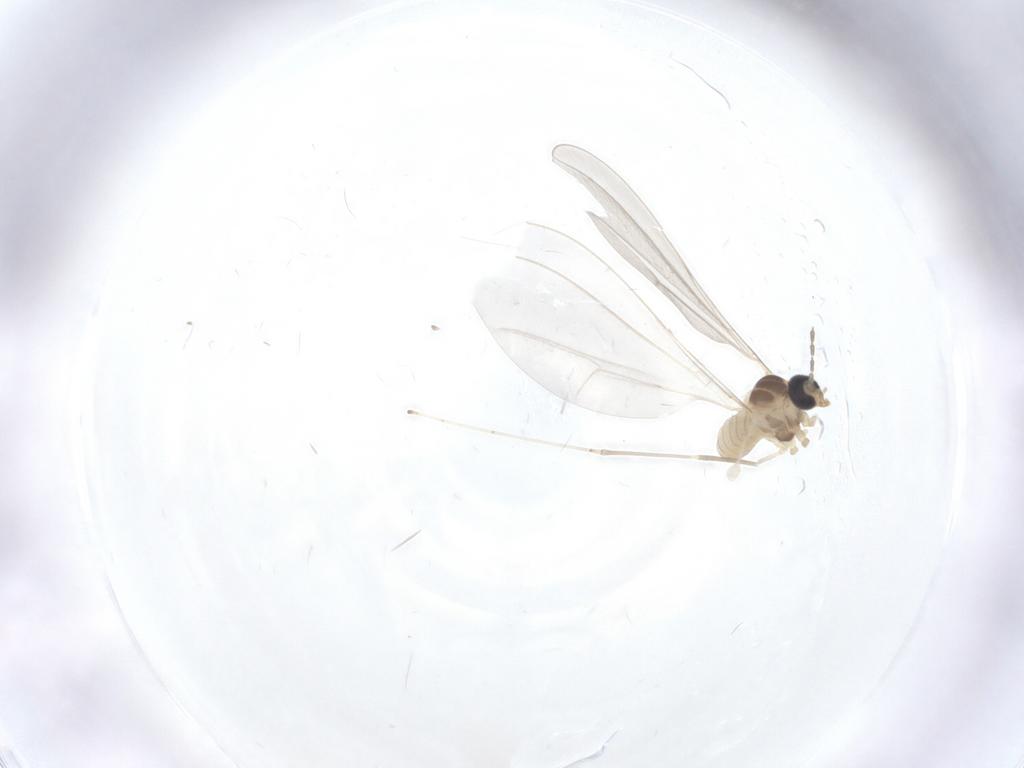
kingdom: Animalia
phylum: Arthropoda
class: Insecta
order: Diptera
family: Cecidomyiidae
